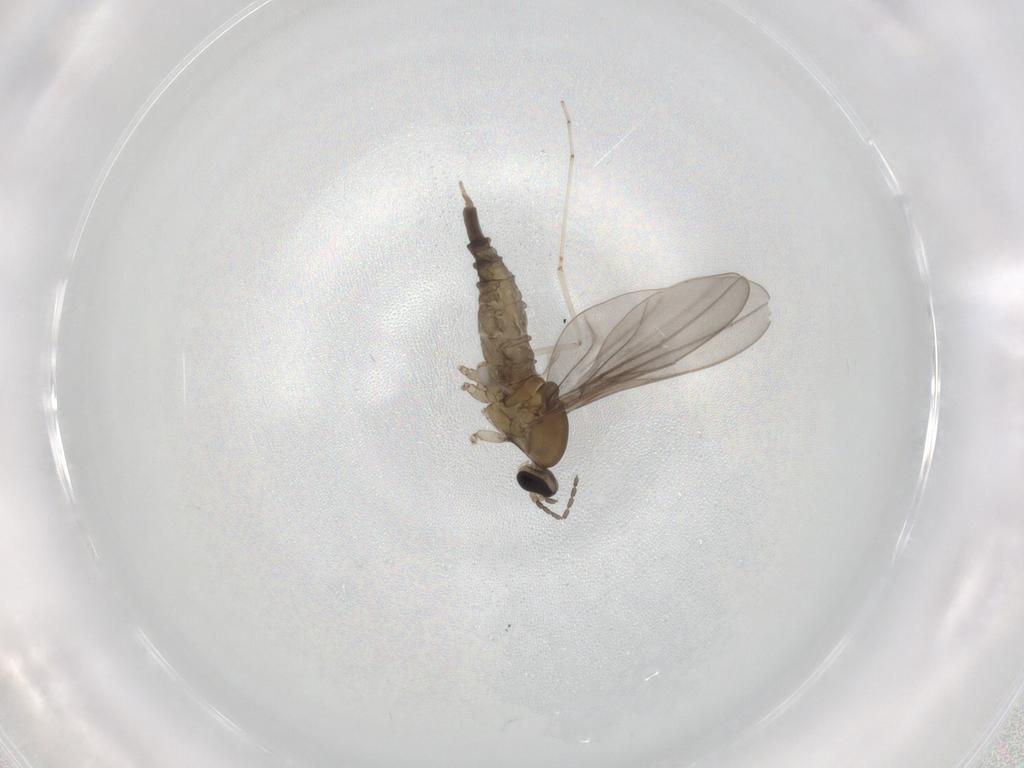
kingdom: Animalia
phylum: Arthropoda
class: Insecta
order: Diptera
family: Cecidomyiidae
